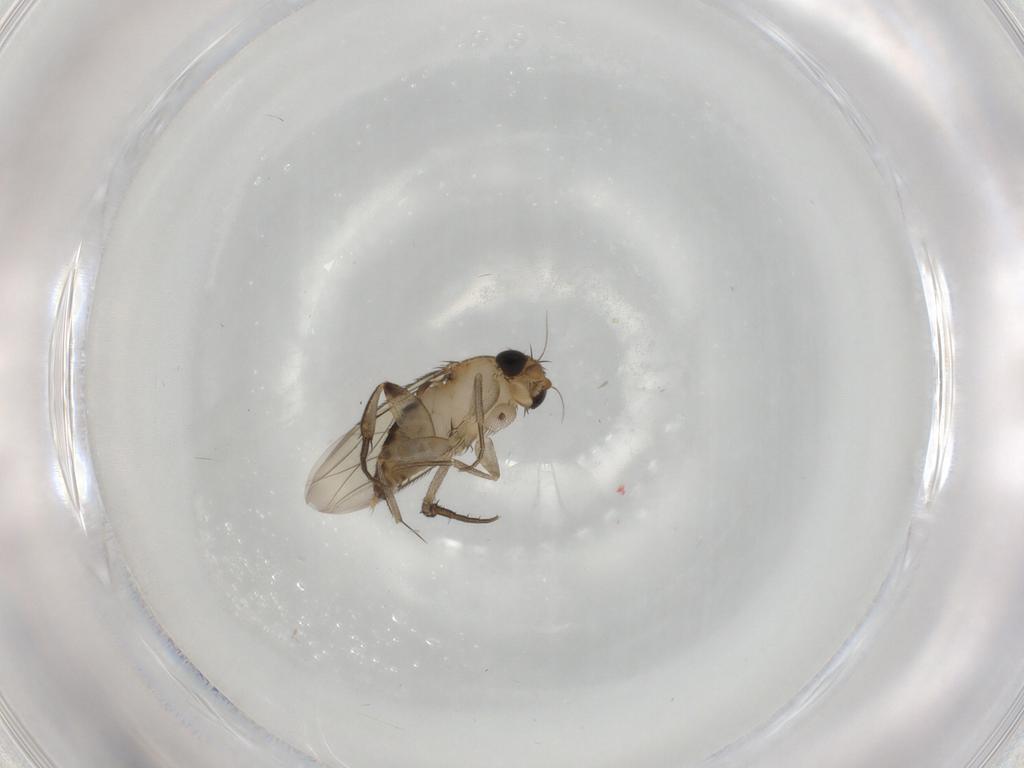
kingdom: Animalia
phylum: Arthropoda
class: Insecta
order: Diptera
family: Phoridae
